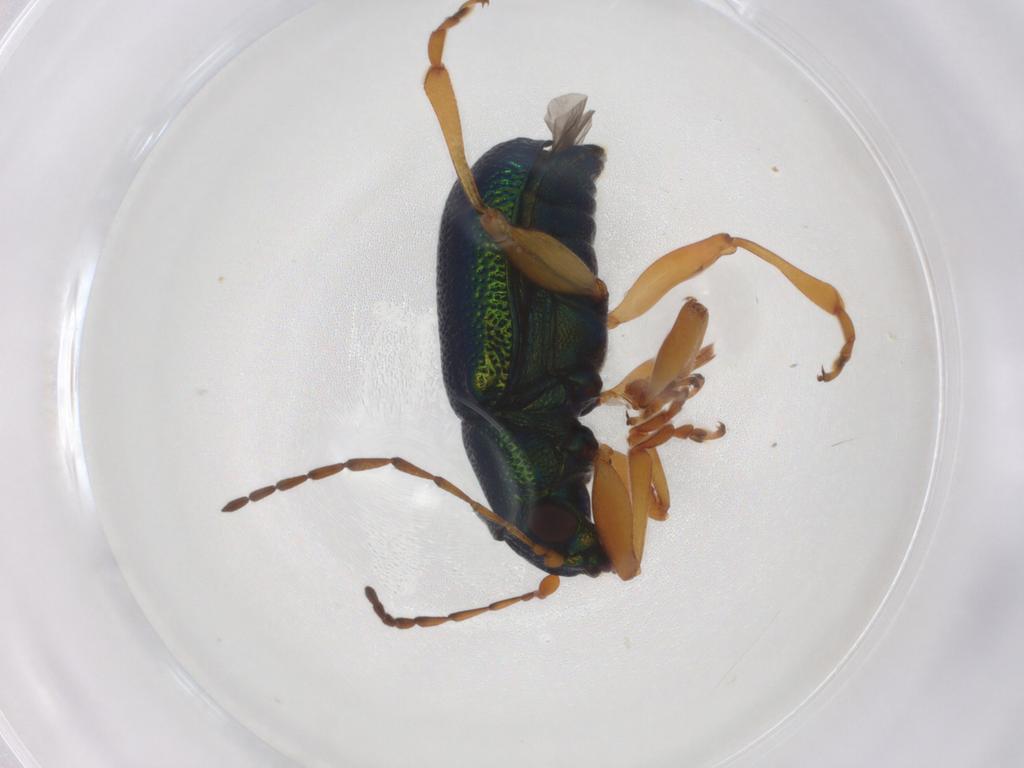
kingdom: Animalia
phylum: Arthropoda
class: Insecta
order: Coleoptera
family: Chrysomelidae
